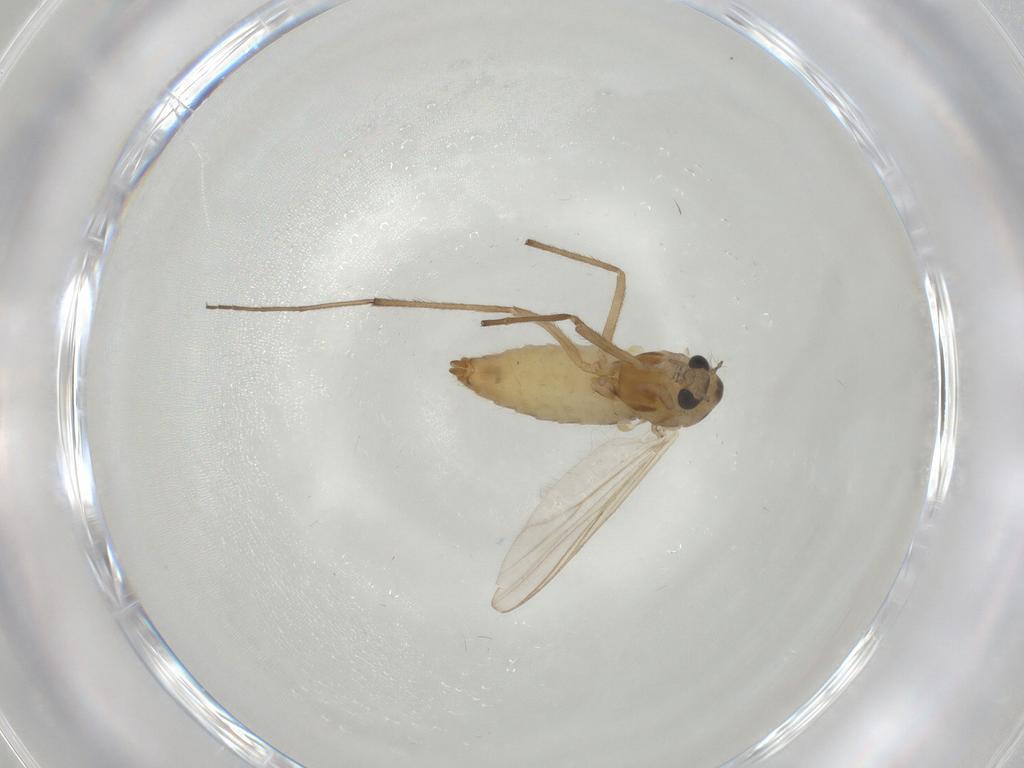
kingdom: Animalia
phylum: Arthropoda
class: Insecta
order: Diptera
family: Chironomidae
